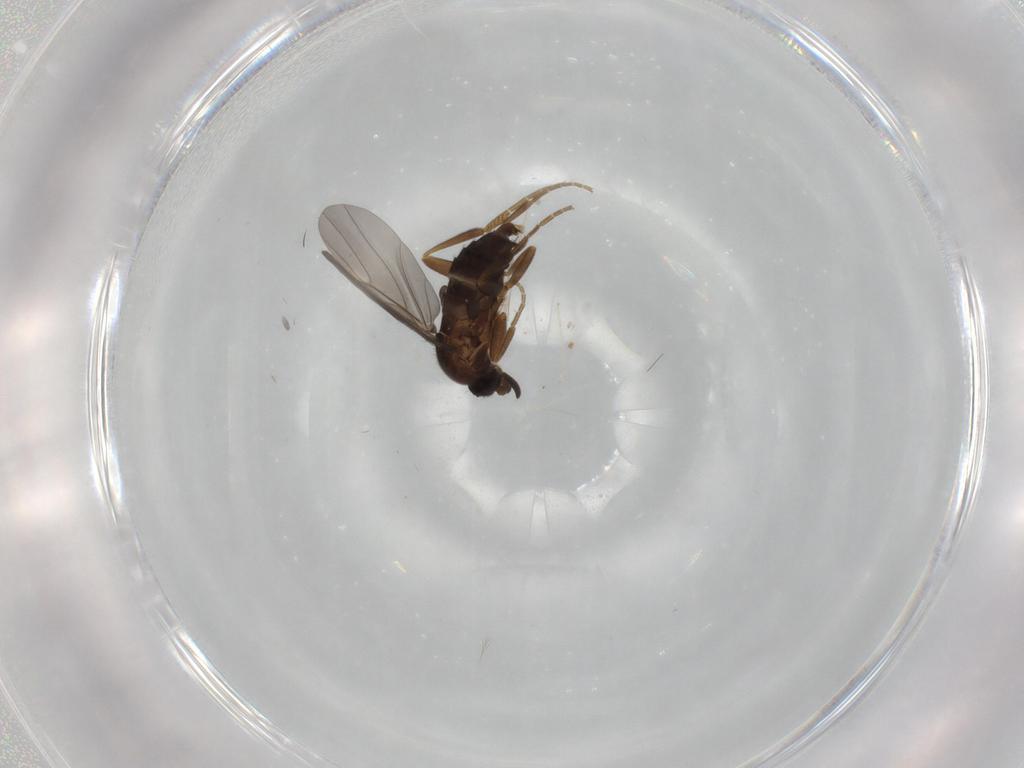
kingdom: Animalia
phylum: Arthropoda
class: Insecta
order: Diptera
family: Phoridae
